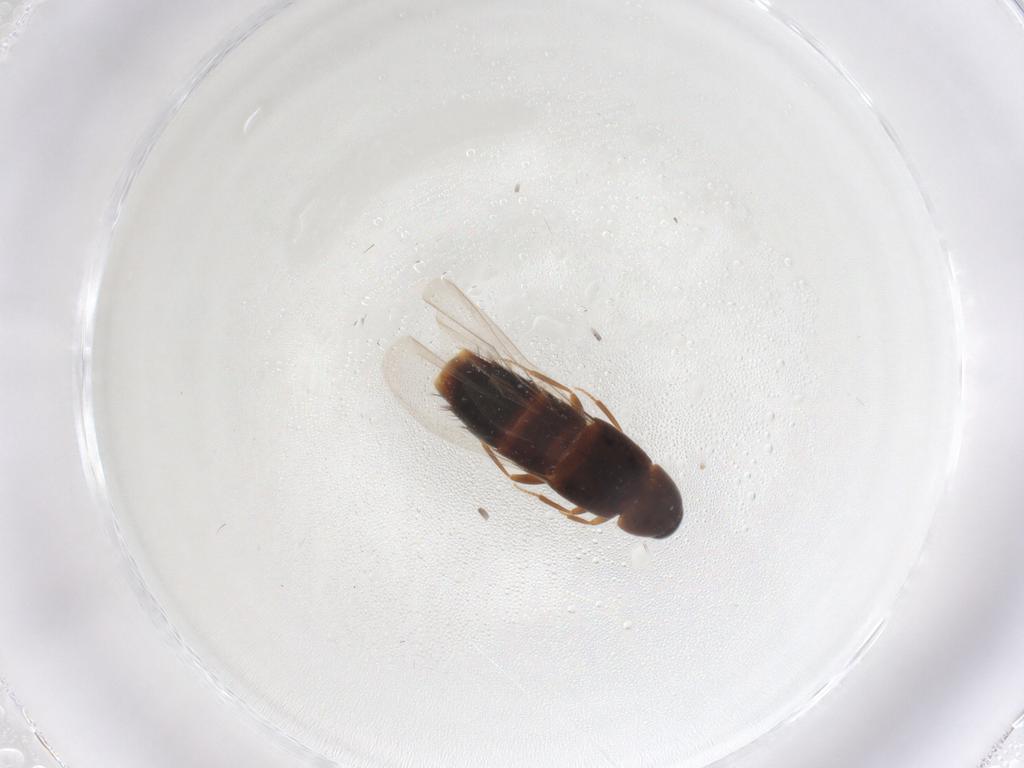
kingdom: Animalia
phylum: Arthropoda
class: Insecta
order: Coleoptera
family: Staphylinidae
